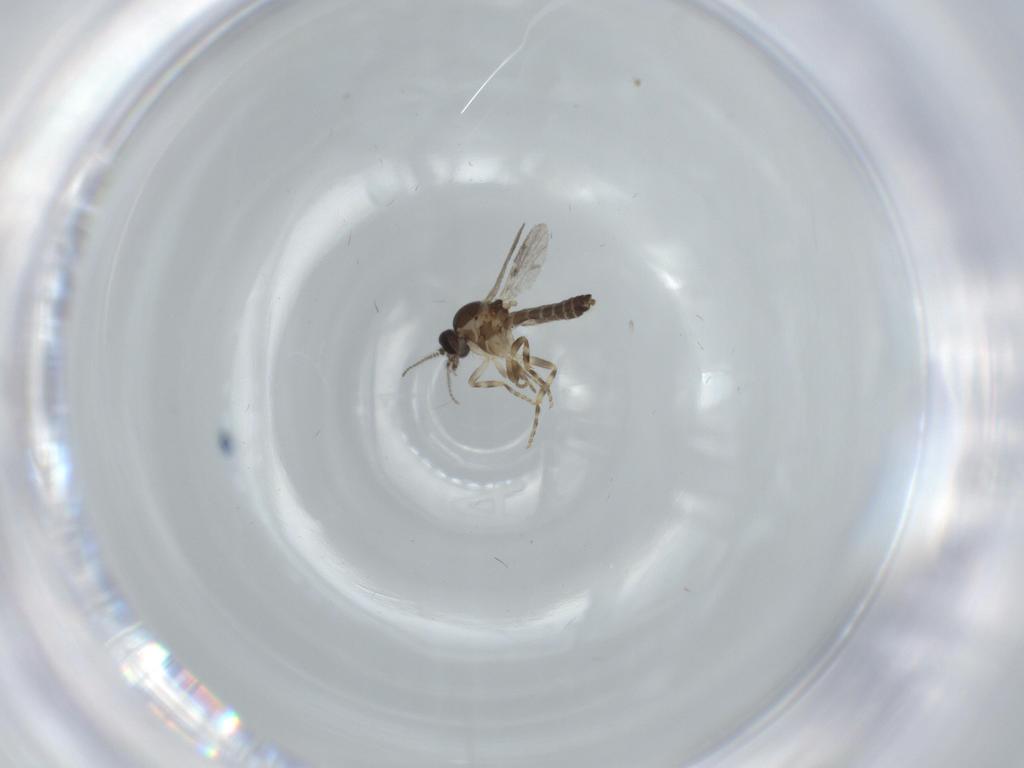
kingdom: Animalia
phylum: Arthropoda
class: Insecta
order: Diptera
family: Ceratopogonidae
